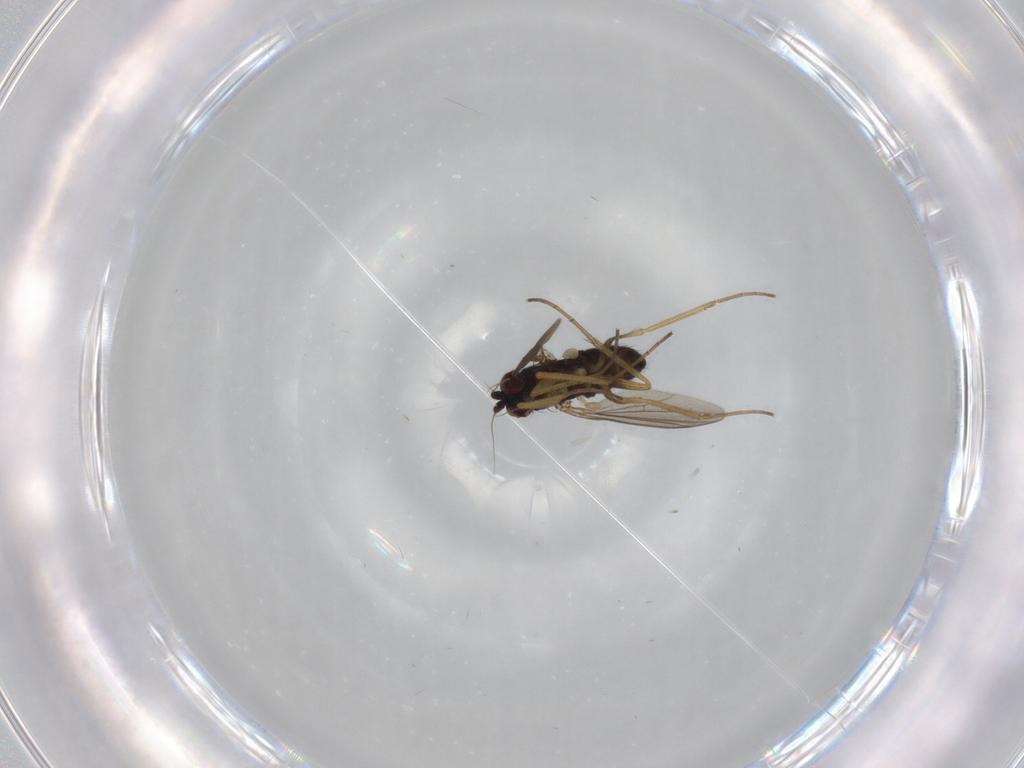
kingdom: Animalia
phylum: Arthropoda
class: Insecta
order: Diptera
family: Dolichopodidae
